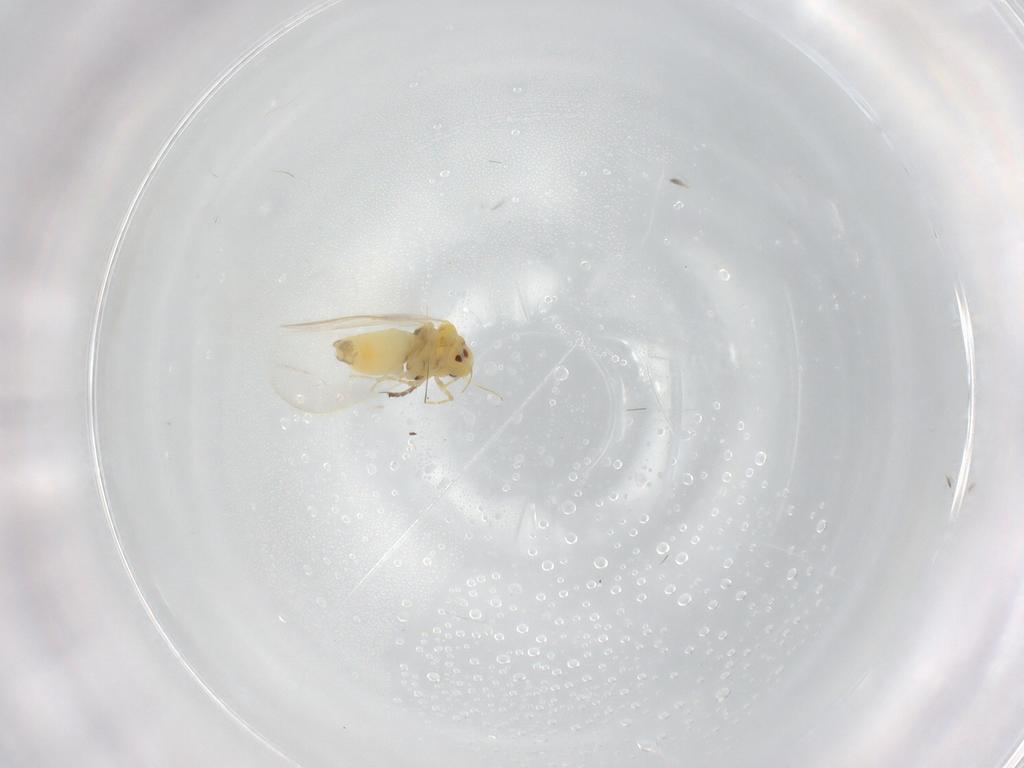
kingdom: Animalia
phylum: Arthropoda
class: Insecta
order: Hemiptera
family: Aleyrodidae
